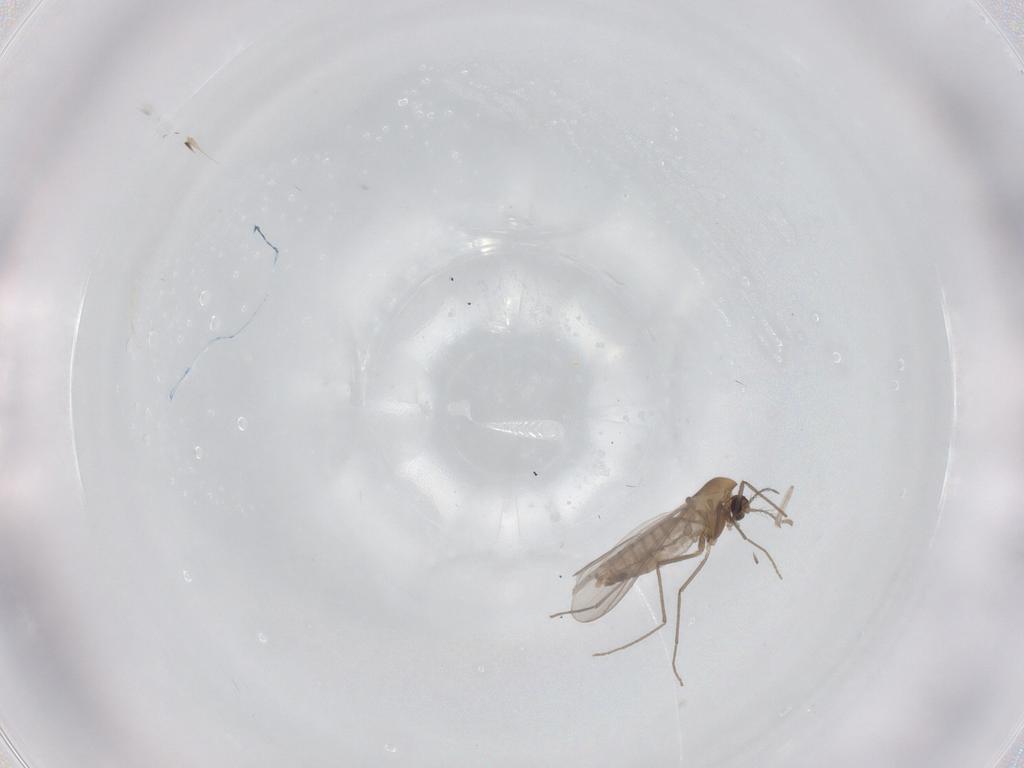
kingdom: Animalia
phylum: Arthropoda
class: Insecta
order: Diptera
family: Chironomidae
